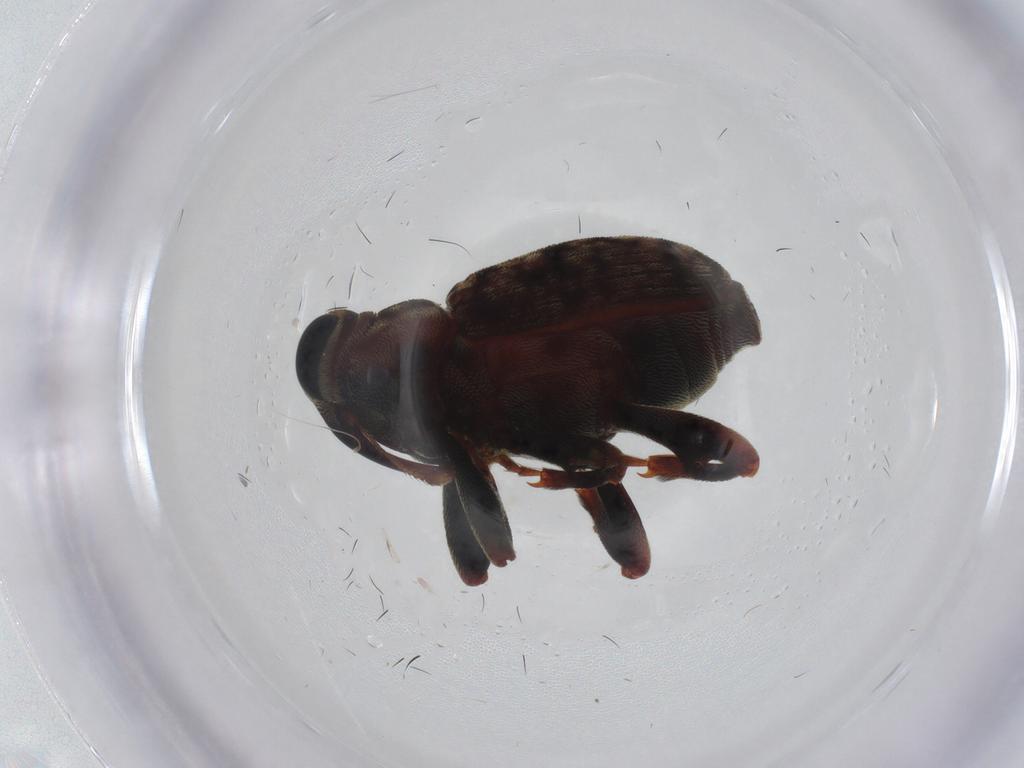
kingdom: Animalia
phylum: Arthropoda
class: Insecta
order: Coleoptera
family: Curculionidae
